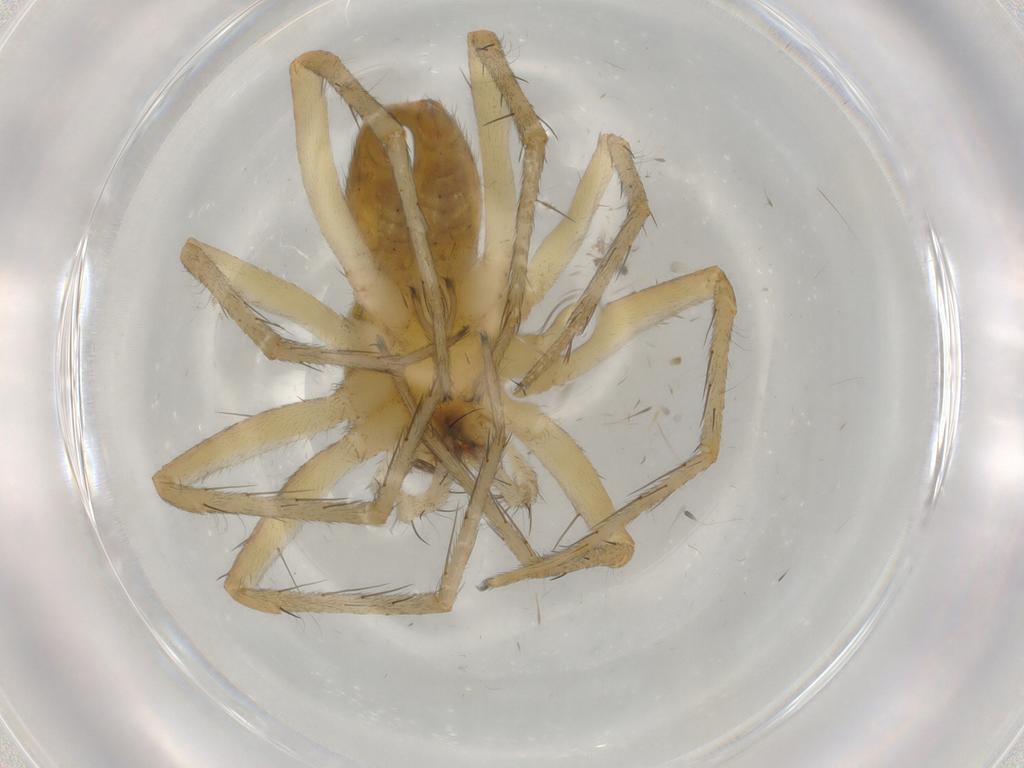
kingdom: Animalia
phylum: Arthropoda
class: Arachnida
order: Araneae
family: Pisauridae
